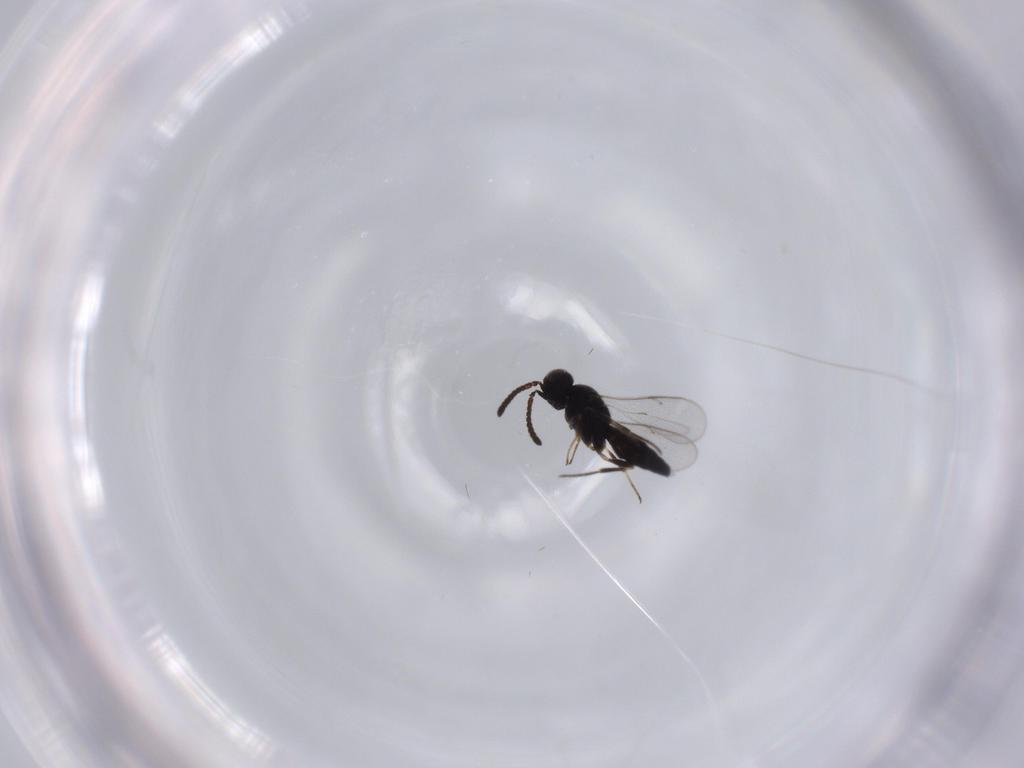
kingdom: Animalia
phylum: Arthropoda
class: Insecta
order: Hymenoptera
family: Scelionidae
